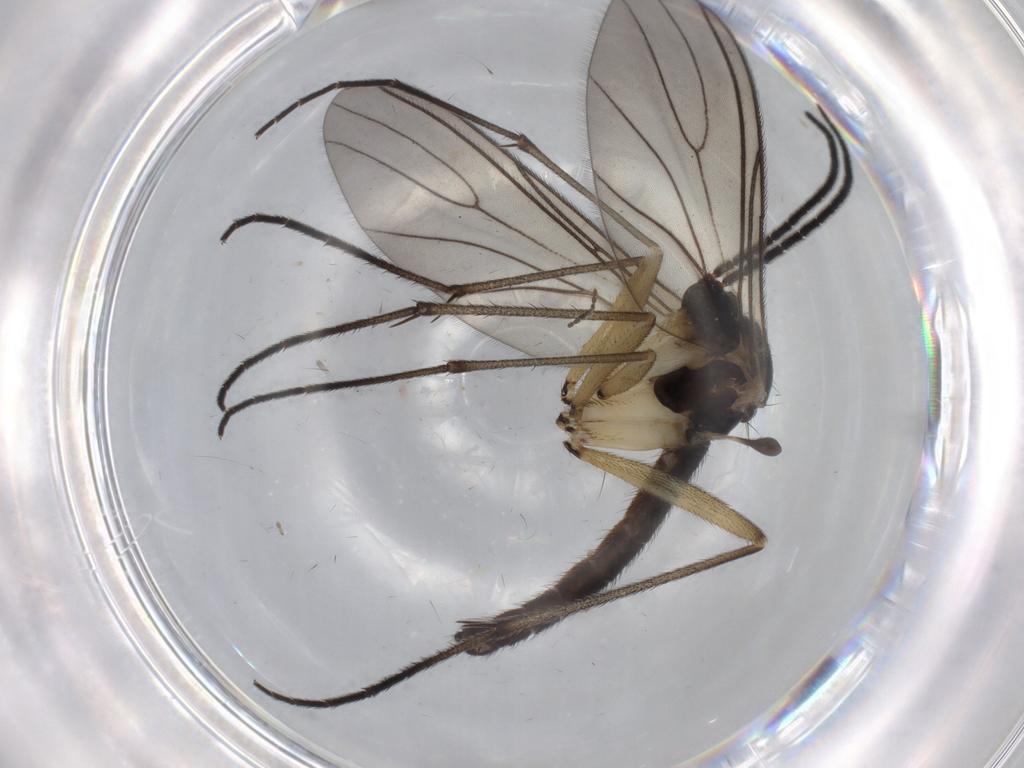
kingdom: Animalia
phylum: Arthropoda
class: Insecta
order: Diptera
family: Sciaridae
